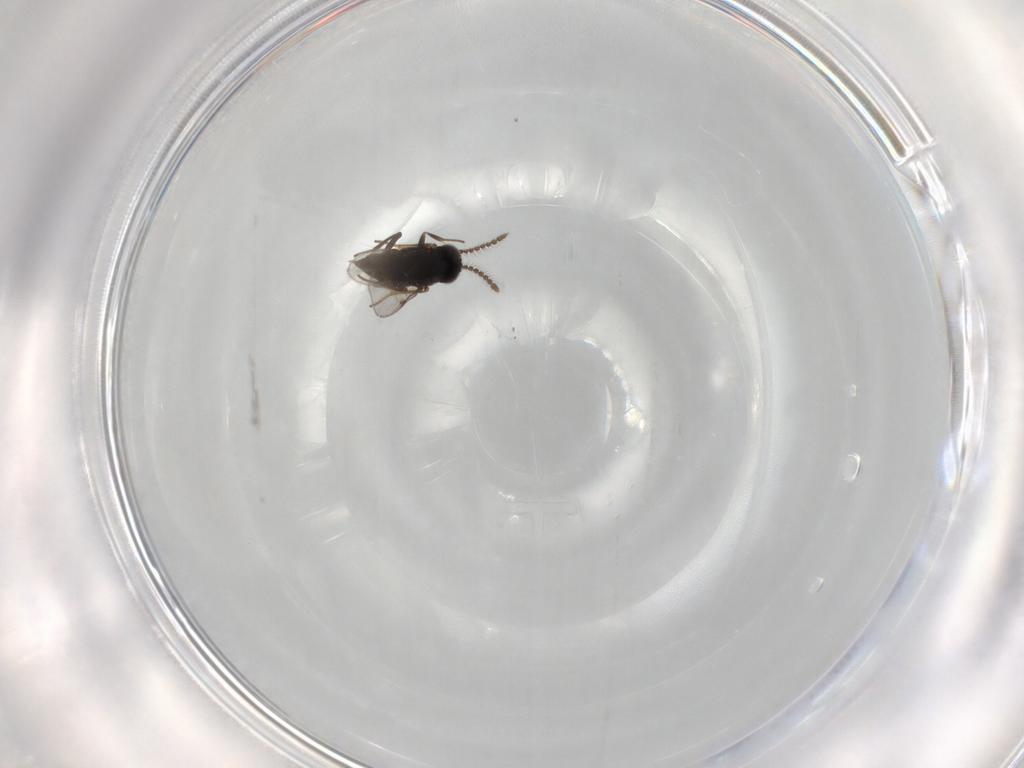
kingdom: Animalia
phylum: Arthropoda
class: Insecta
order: Hymenoptera
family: Encyrtidae
